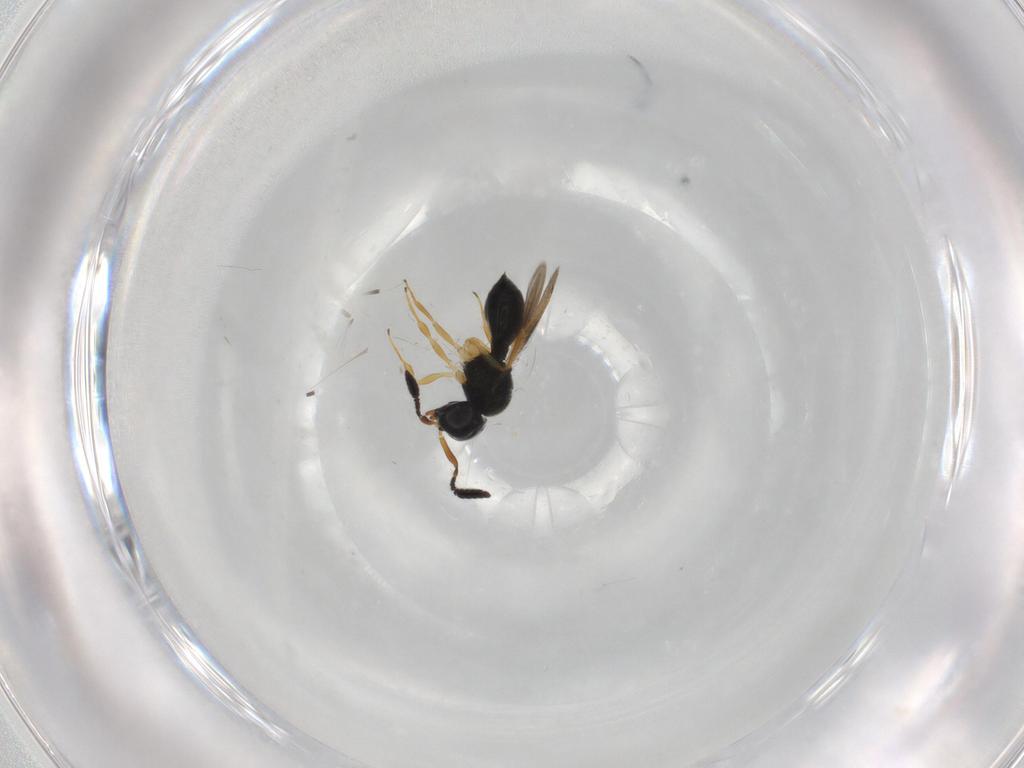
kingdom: Animalia
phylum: Arthropoda
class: Insecta
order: Hymenoptera
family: Scelionidae
